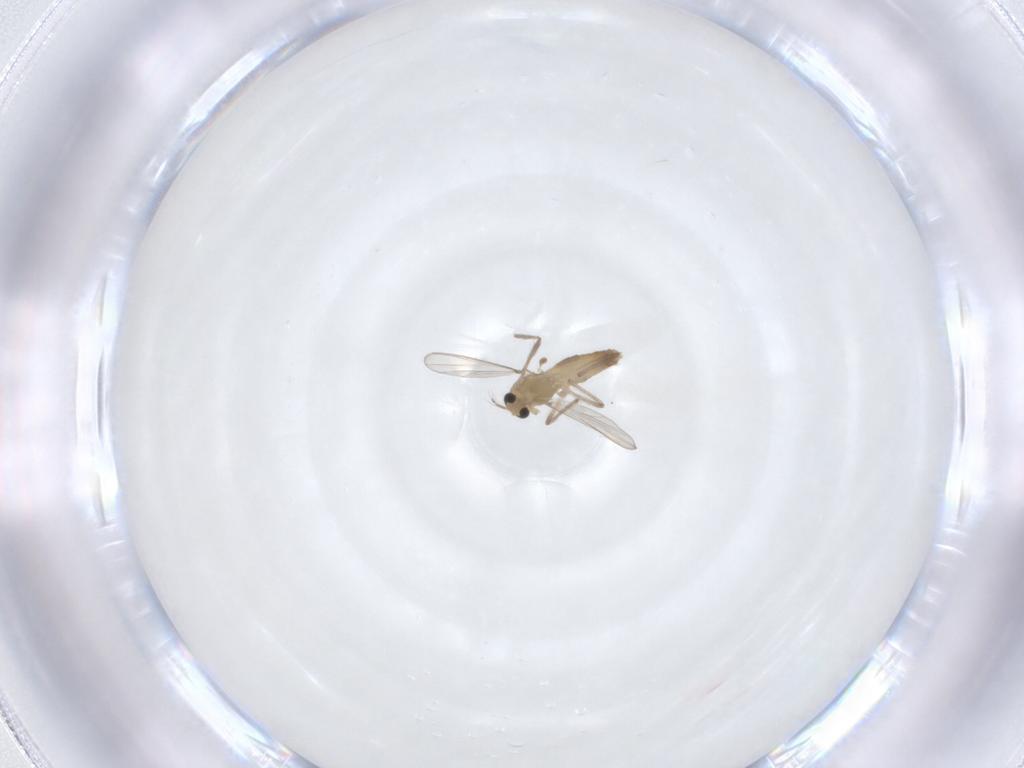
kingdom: Animalia
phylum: Arthropoda
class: Insecta
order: Diptera
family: Chironomidae
